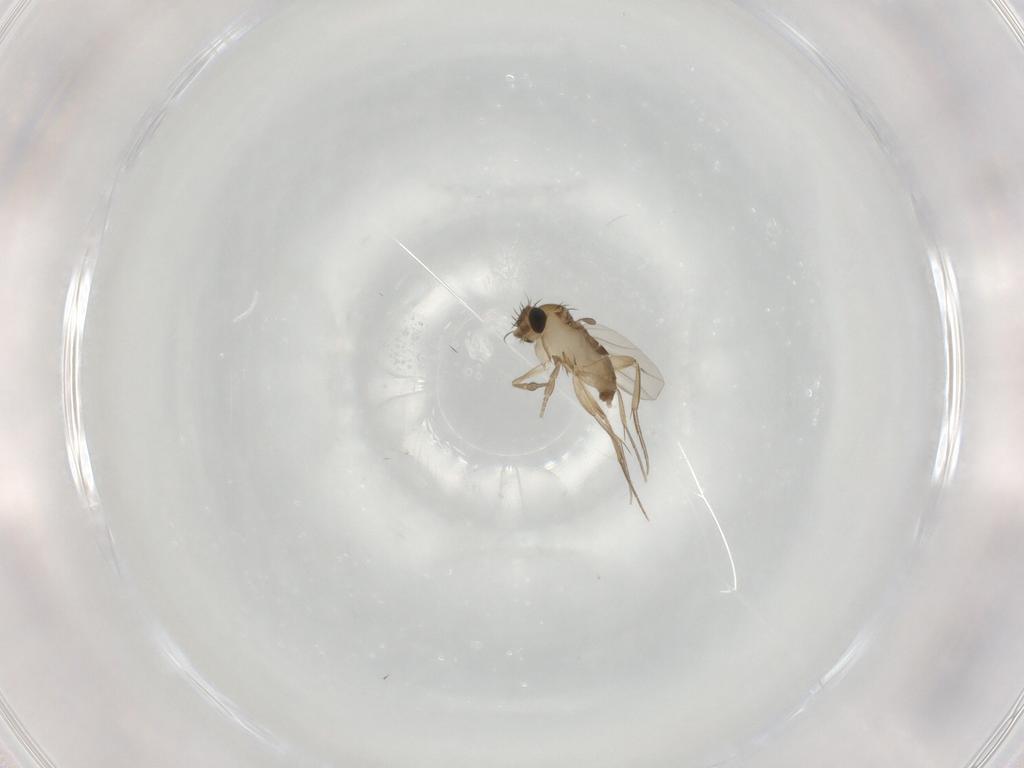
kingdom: Animalia
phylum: Arthropoda
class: Insecta
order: Diptera
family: Phoridae
